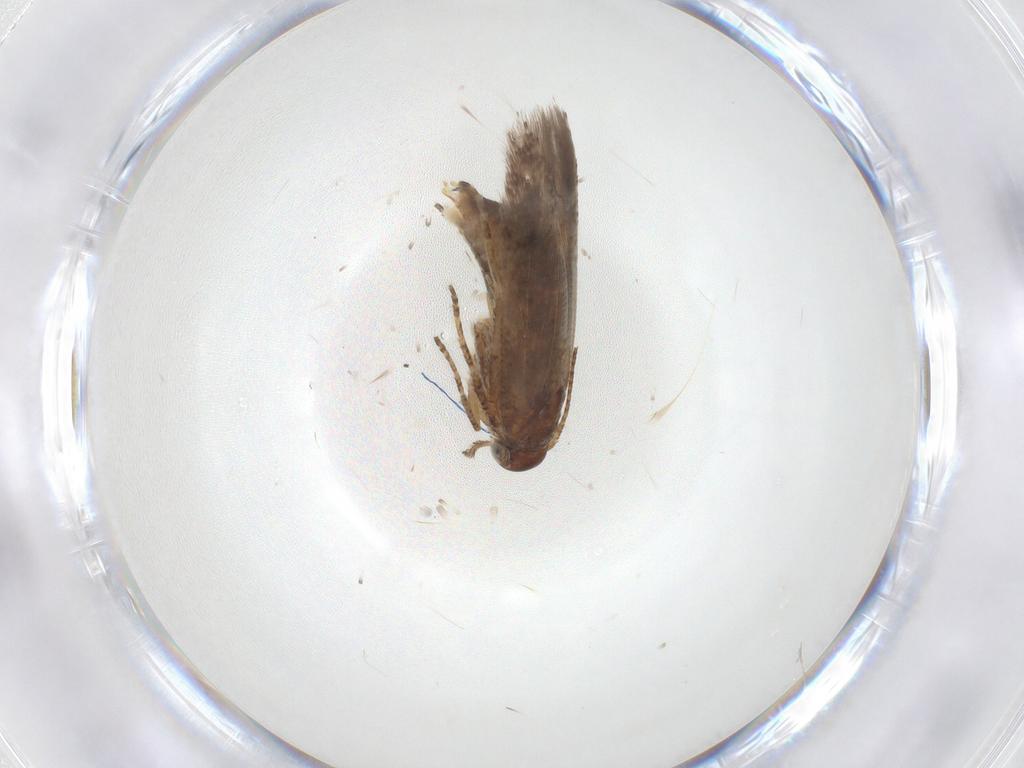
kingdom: Animalia
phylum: Arthropoda
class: Insecta
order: Lepidoptera
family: Gelechiidae
